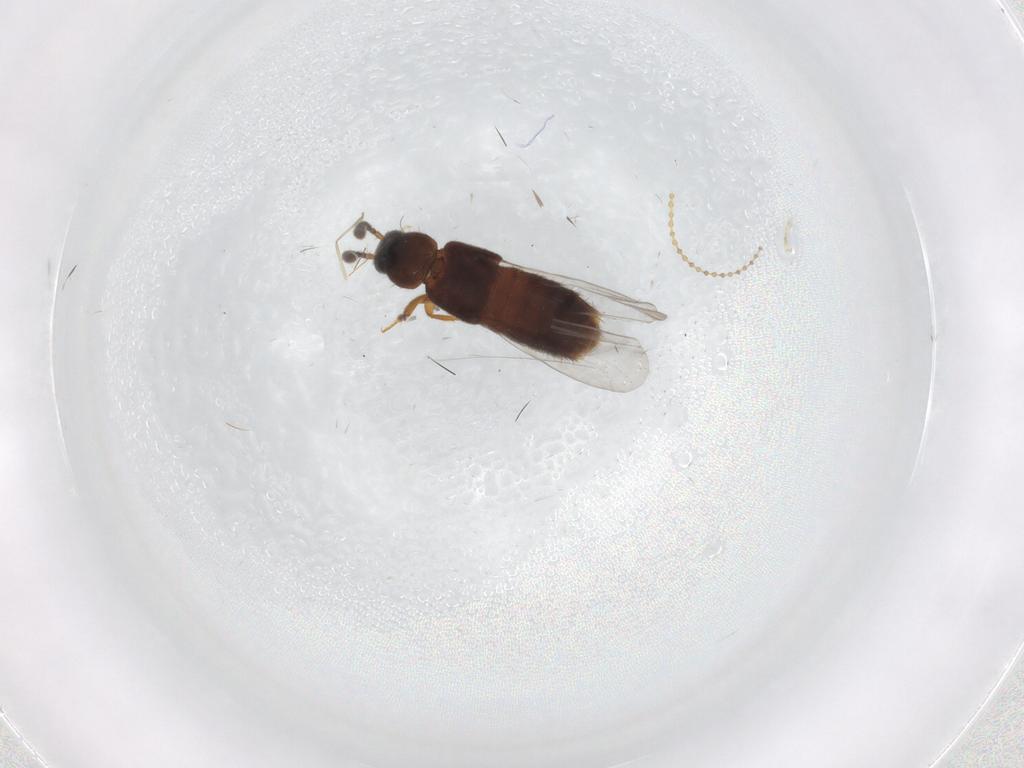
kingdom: Animalia
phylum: Arthropoda
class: Insecta
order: Coleoptera
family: Staphylinidae
